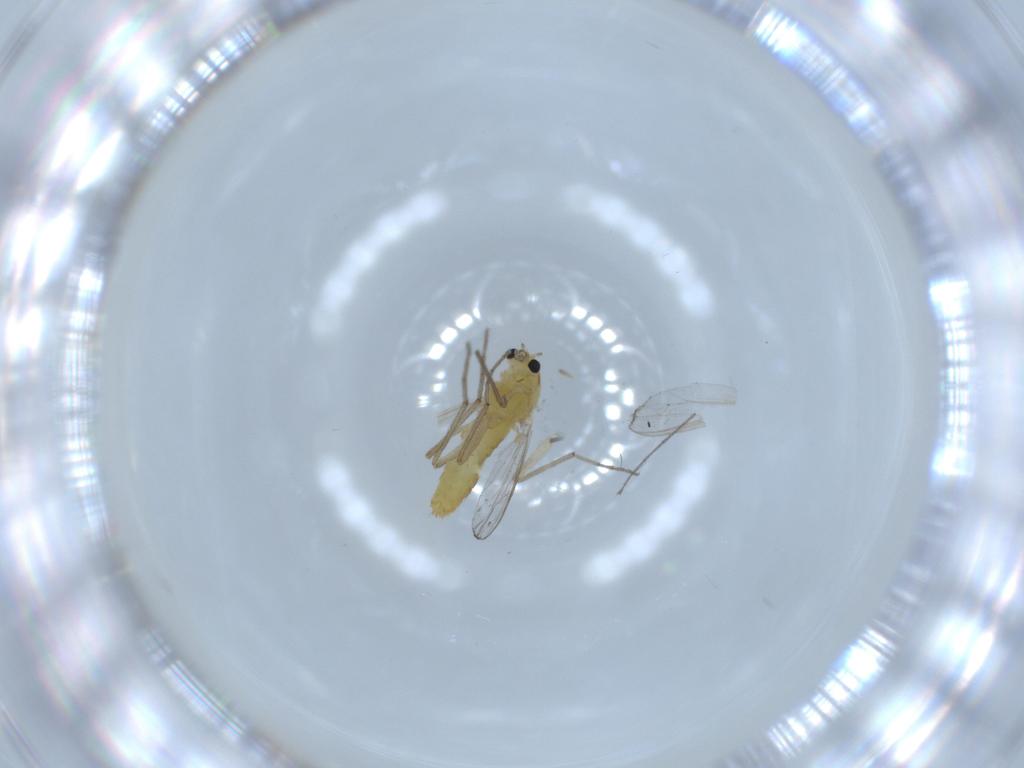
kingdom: Animalia
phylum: Arthropoda
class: Insecta
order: Diptera
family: Chironomidae
